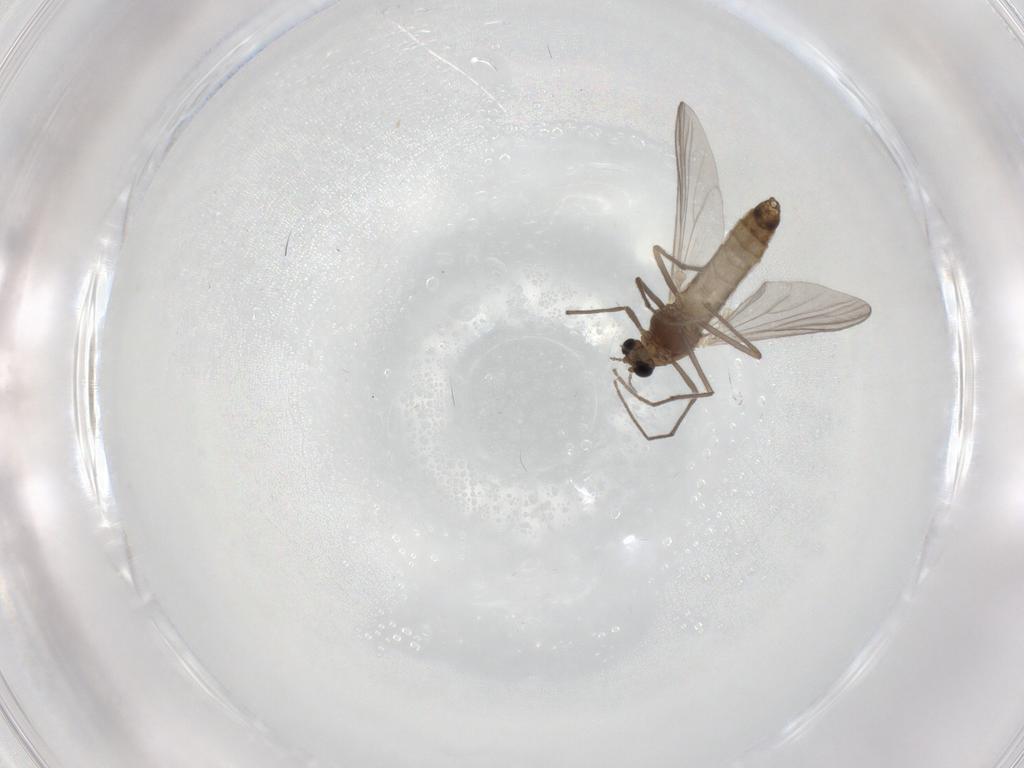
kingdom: Animalia
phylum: Arthropoda
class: Insecta
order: Diptera
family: Chironomidae
